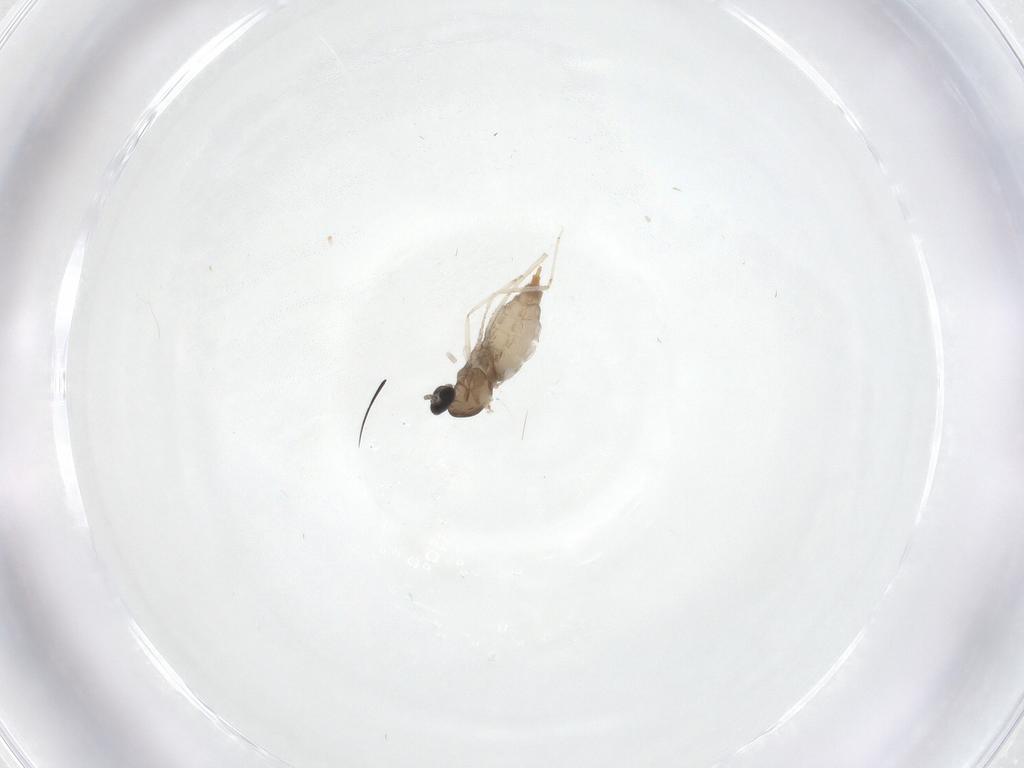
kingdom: Animalia
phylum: Arthropoda
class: Insecta
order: Diptera
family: Cecidomyiidae
